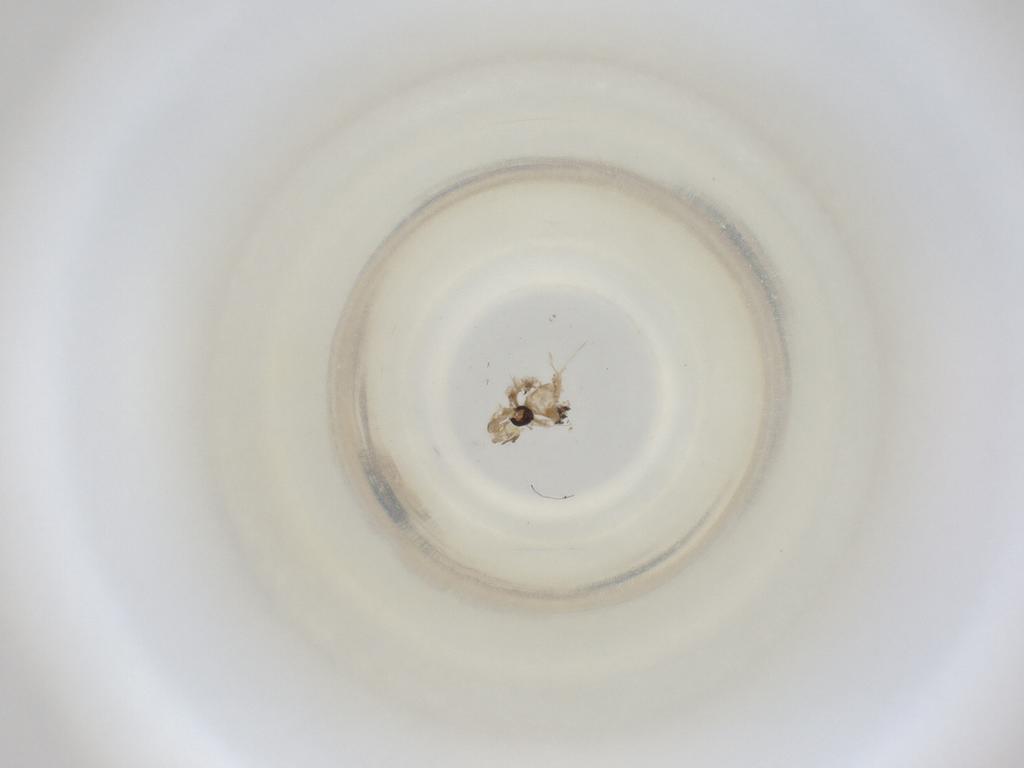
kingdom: Animalia
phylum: Arthropoda
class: Insecta
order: Diptera
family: Cecidomyiidae
